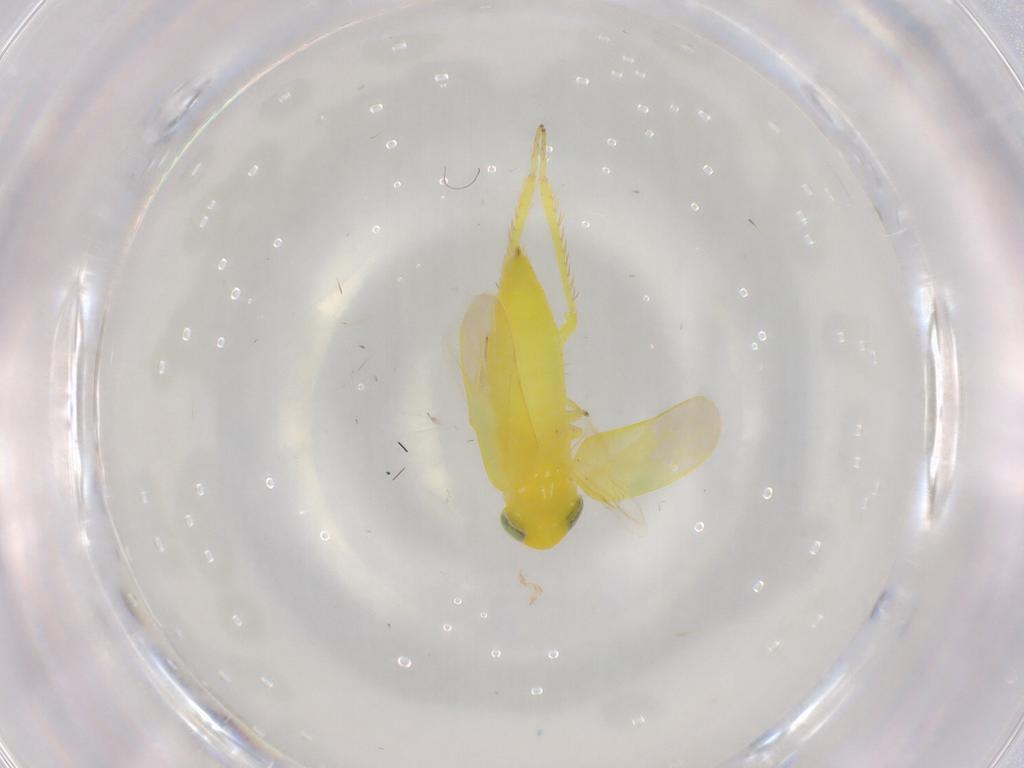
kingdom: Animalia
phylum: Arthropoda
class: Insecta
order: Hemiptera
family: Cicadellidae
